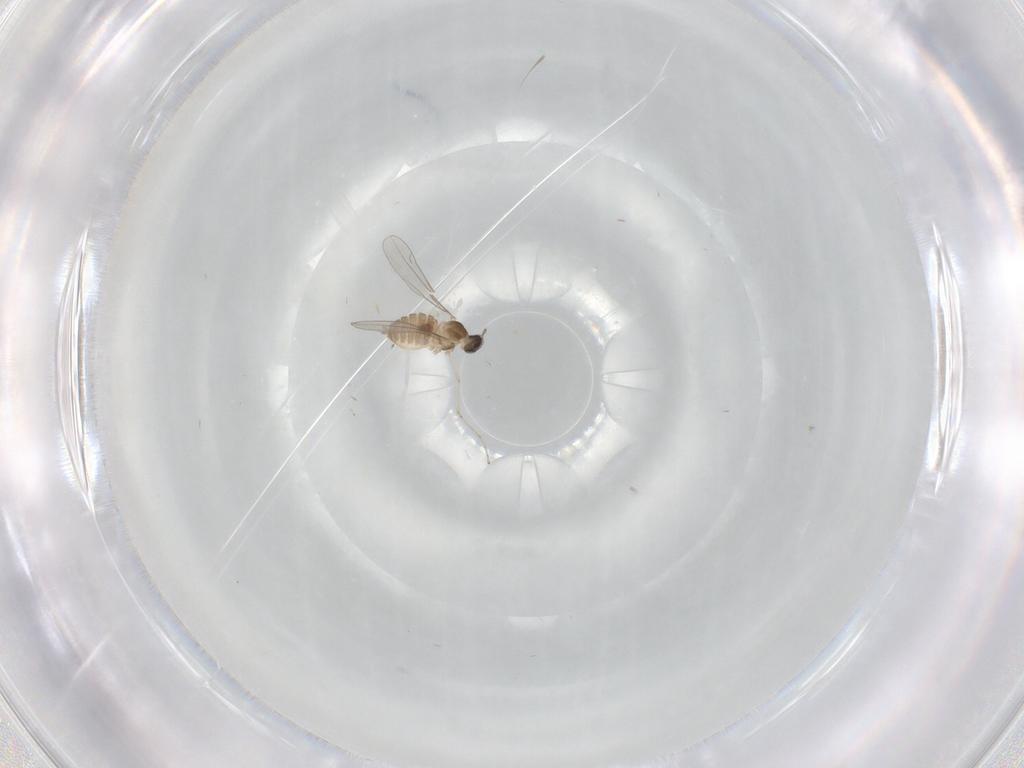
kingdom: Animalia
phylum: Arthropoda
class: Insecta
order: Diptera
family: Cecidomyiidae
